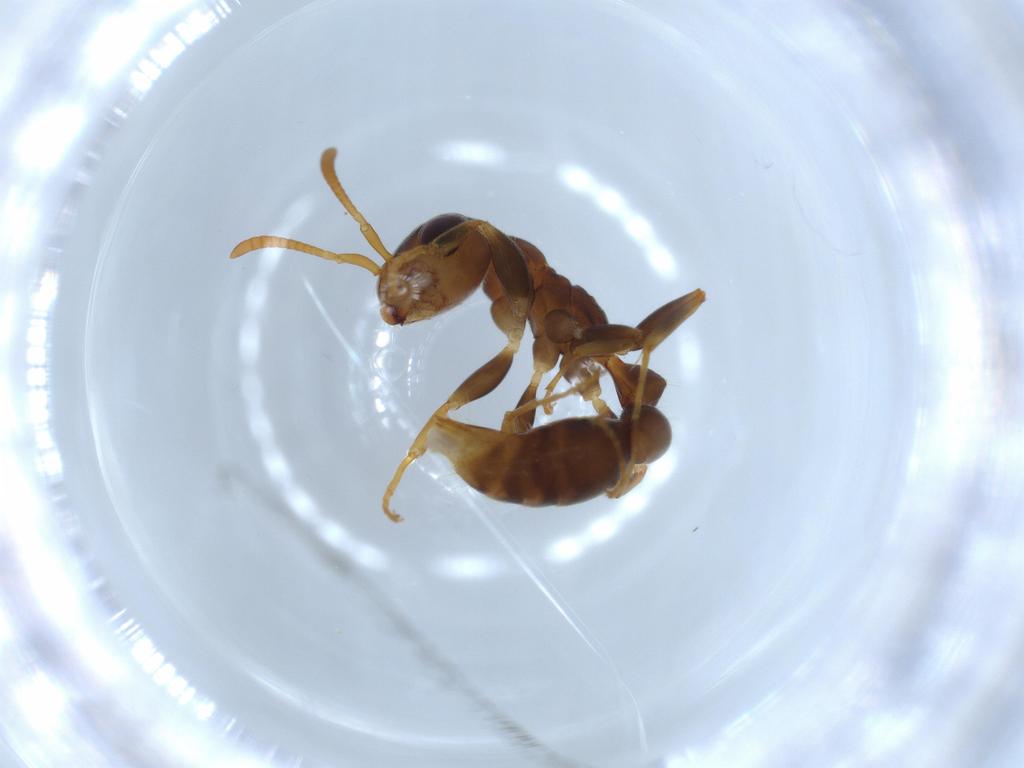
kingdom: Animalia
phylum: Arthropoda
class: Insecta
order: Hymenoptera
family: Formicidae
